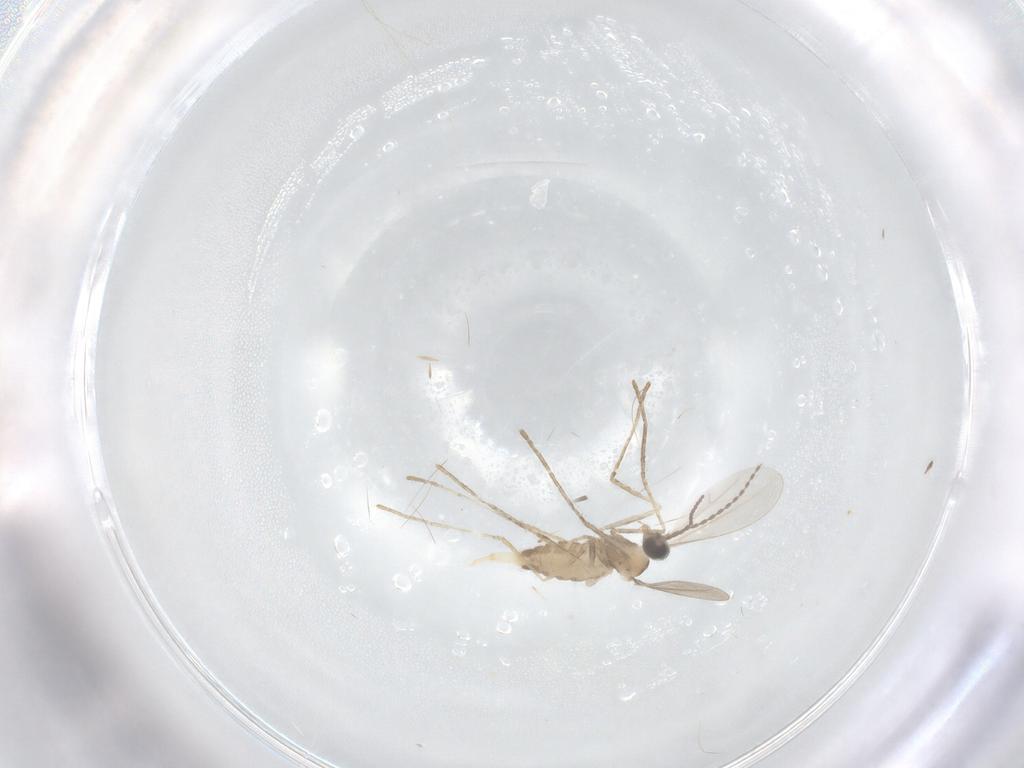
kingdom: Animalia
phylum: Arthropoda
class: Insecta
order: Diptera
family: Cecidomyiidae
